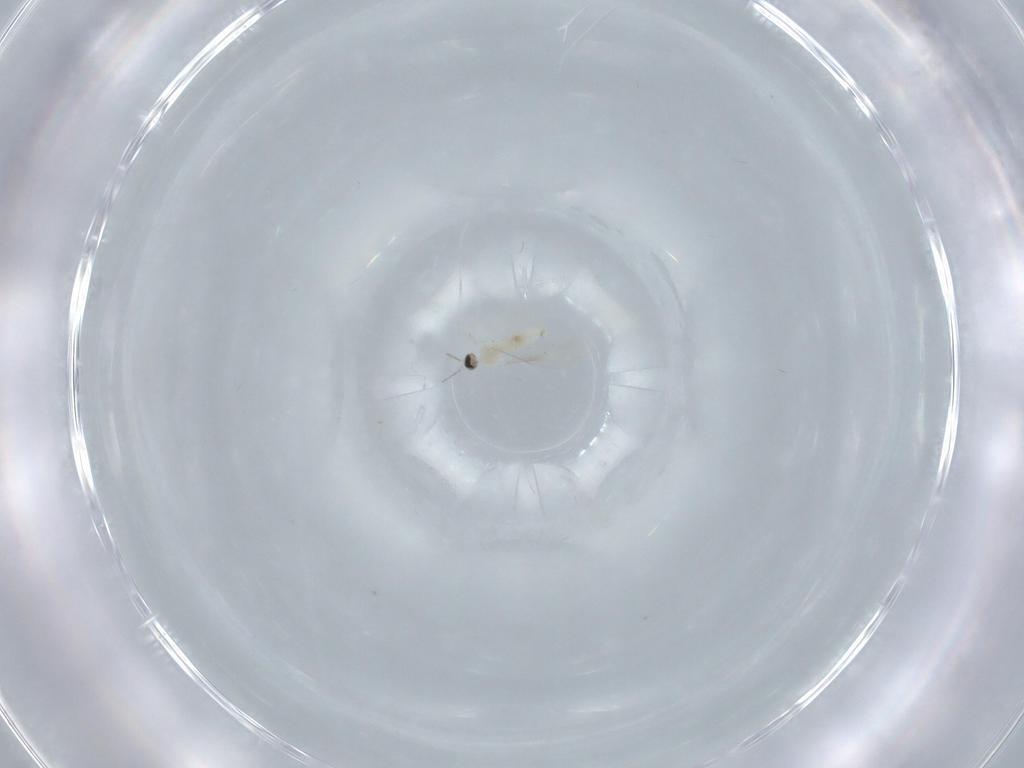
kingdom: Animalia
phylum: Arthropoda
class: Insecta
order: Diptera
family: Cecidomyiidae
